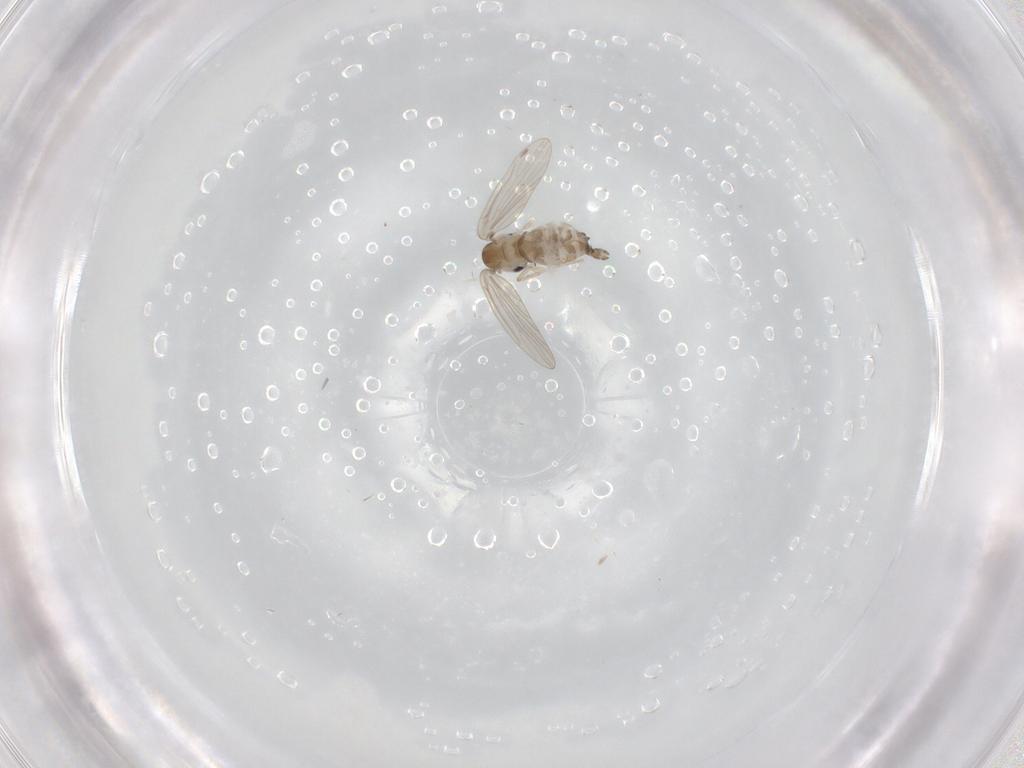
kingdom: Animalia
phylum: Arthropoda
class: Insecta
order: Diptera
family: Phoridae
